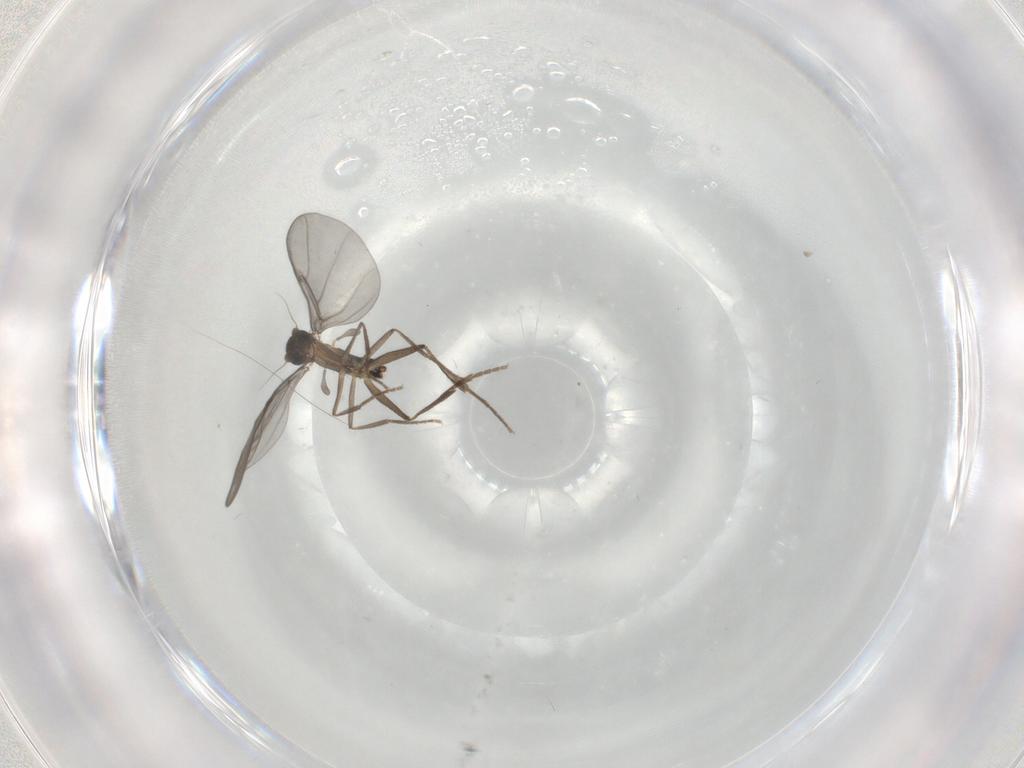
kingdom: Animalia
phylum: Arthropoda
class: Insecta
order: Diptera
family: Phoridae
